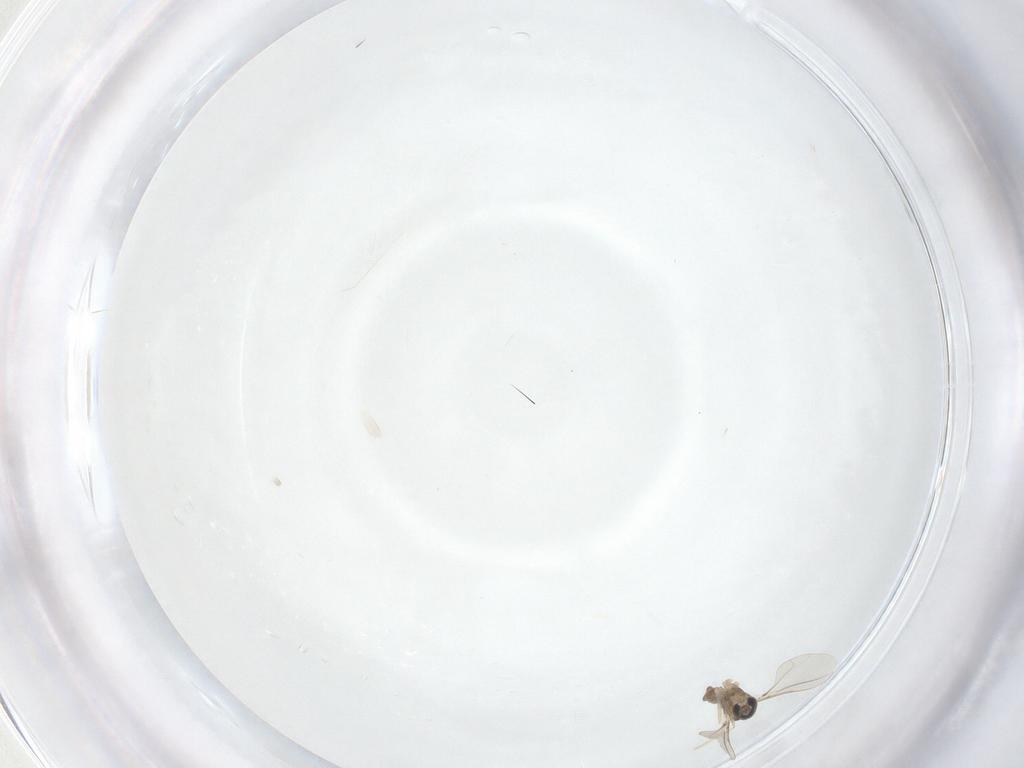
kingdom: Animalia
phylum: Arthropoda
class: Insecta
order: Diptera
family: Cecidomyiidae
